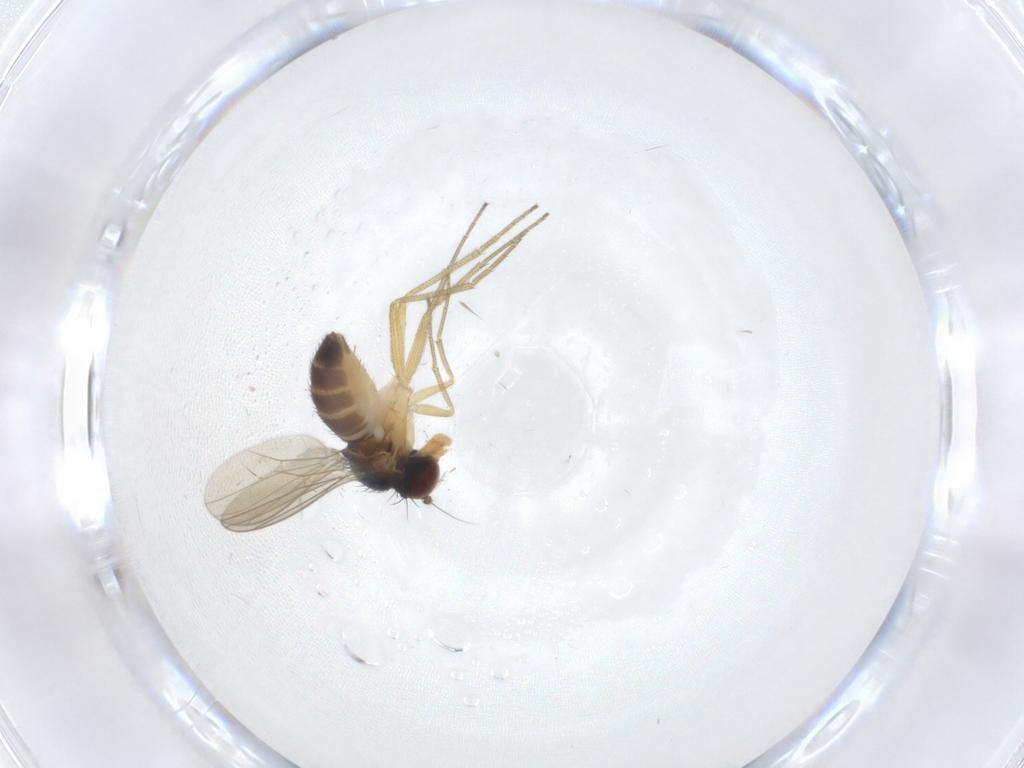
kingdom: Animalia
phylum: Arthropoda
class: Insecta
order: Diptera
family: Dolichopodidae
